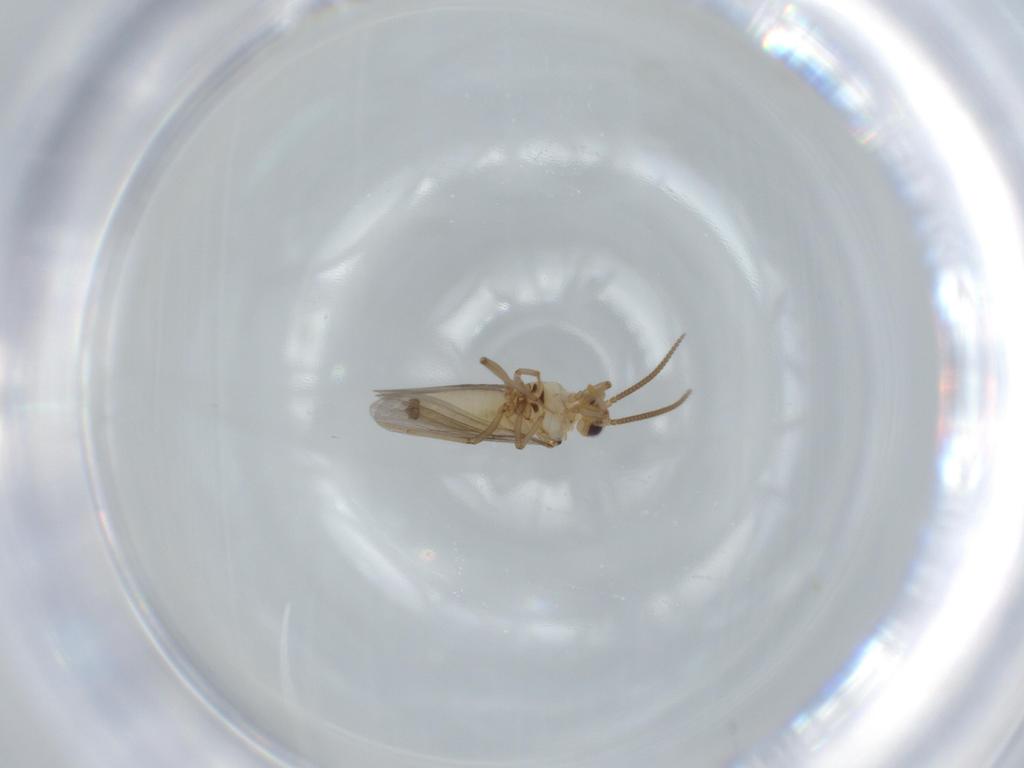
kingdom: Animalia
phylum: Arthropoda
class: Insecta
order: Neuroptera
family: Coniopterygidae
